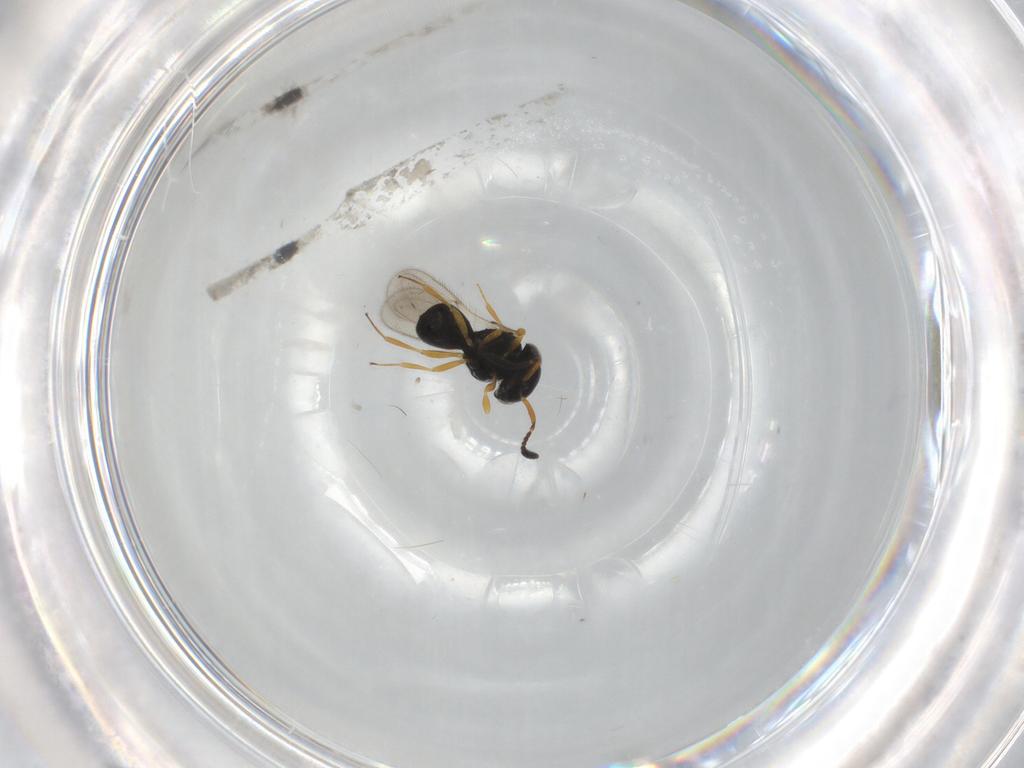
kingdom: Animalia
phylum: Arthropoda
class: Insecta
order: Hymenoptera
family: Scelionidae
